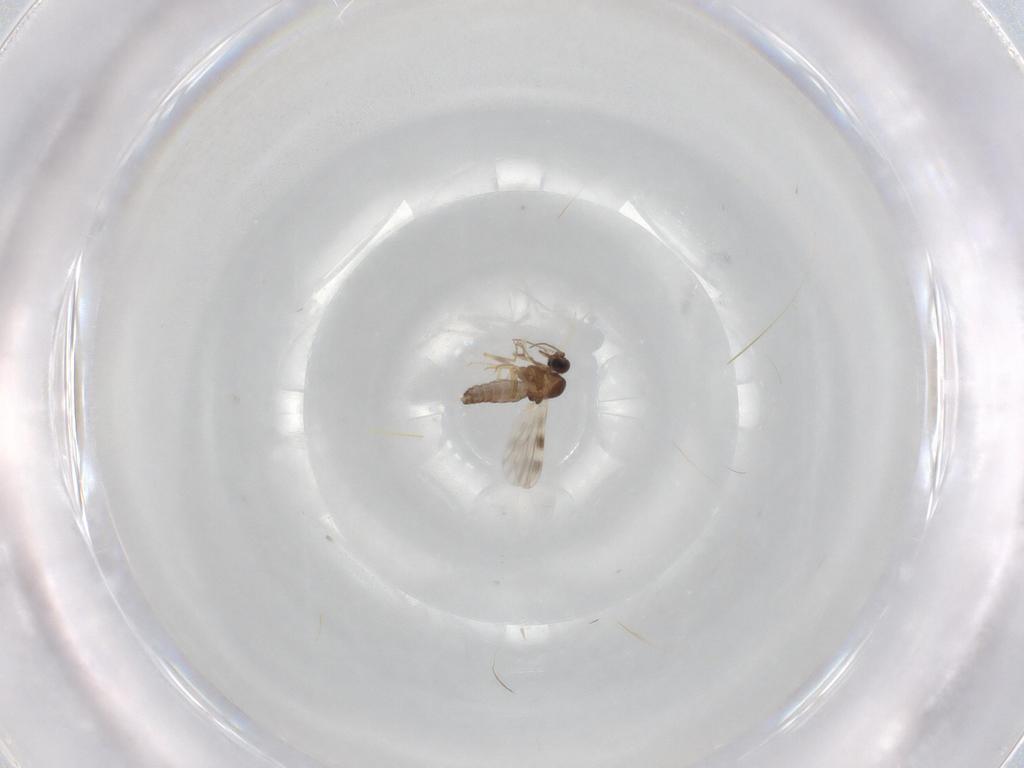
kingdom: Animalia
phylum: Arthropoda
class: Insecta
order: Diptera
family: Ceratopogonidae
